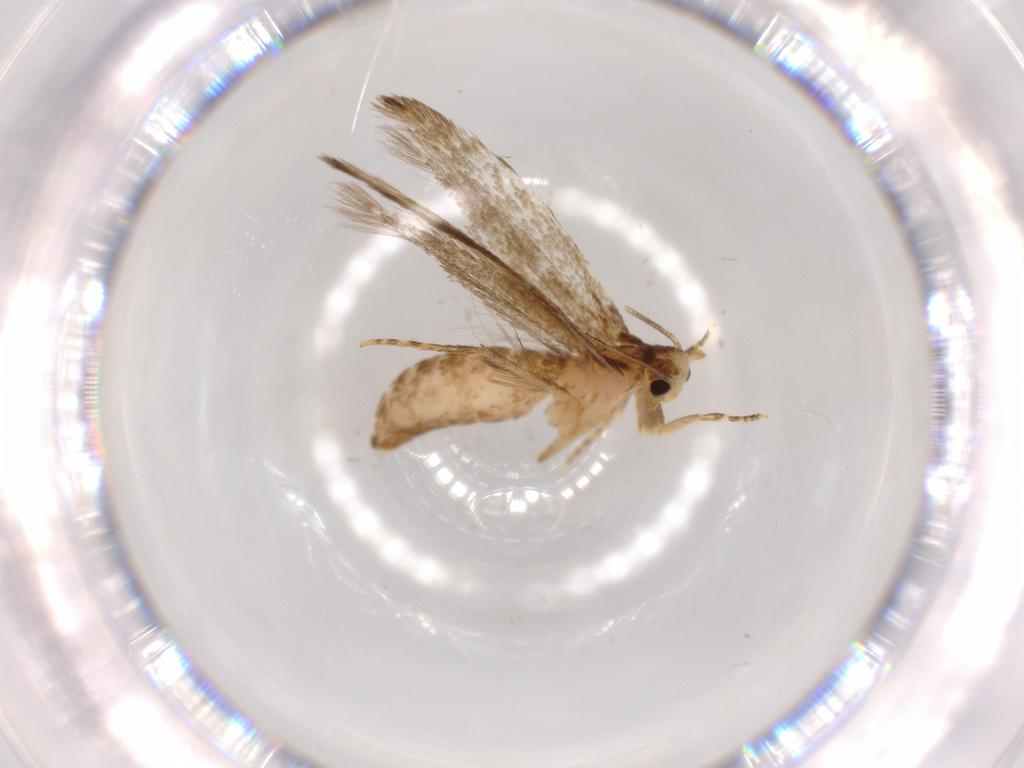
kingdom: Animalia
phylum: Arthropoda
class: Insecta
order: Lepidoptera
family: Tineidae
